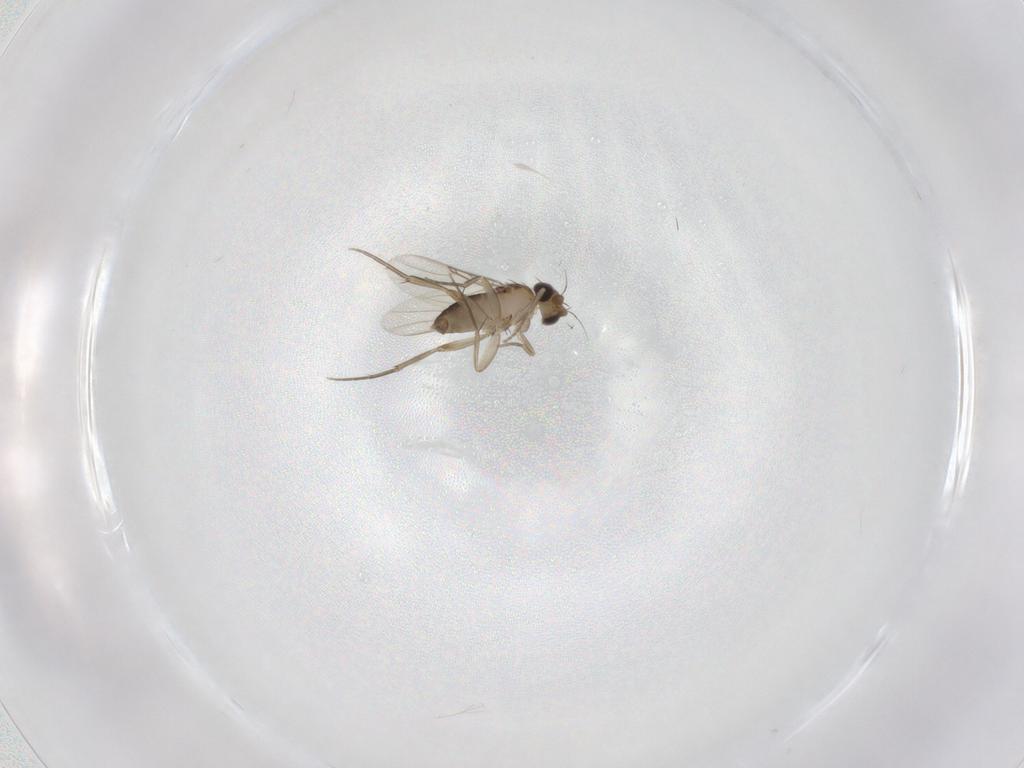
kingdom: Animalia
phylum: Arthropoda
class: Insecta
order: Diptera
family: Phoridae
